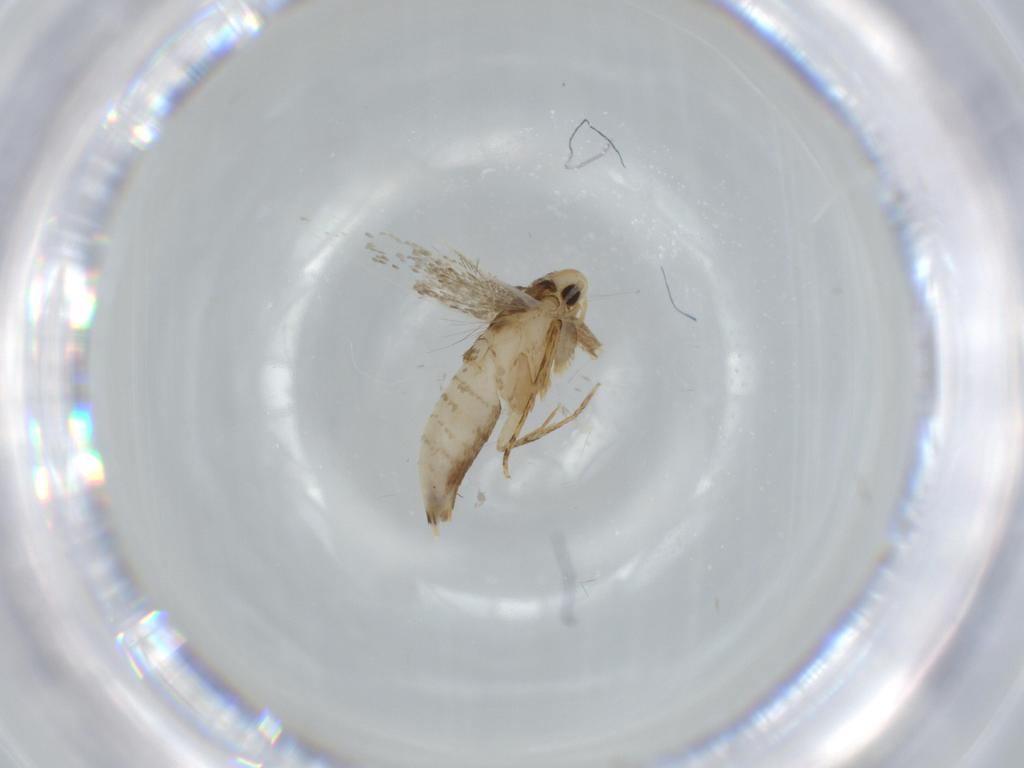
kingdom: Animalia
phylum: Arthropoda
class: Insecta
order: Lepidoptera
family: Tineidae
